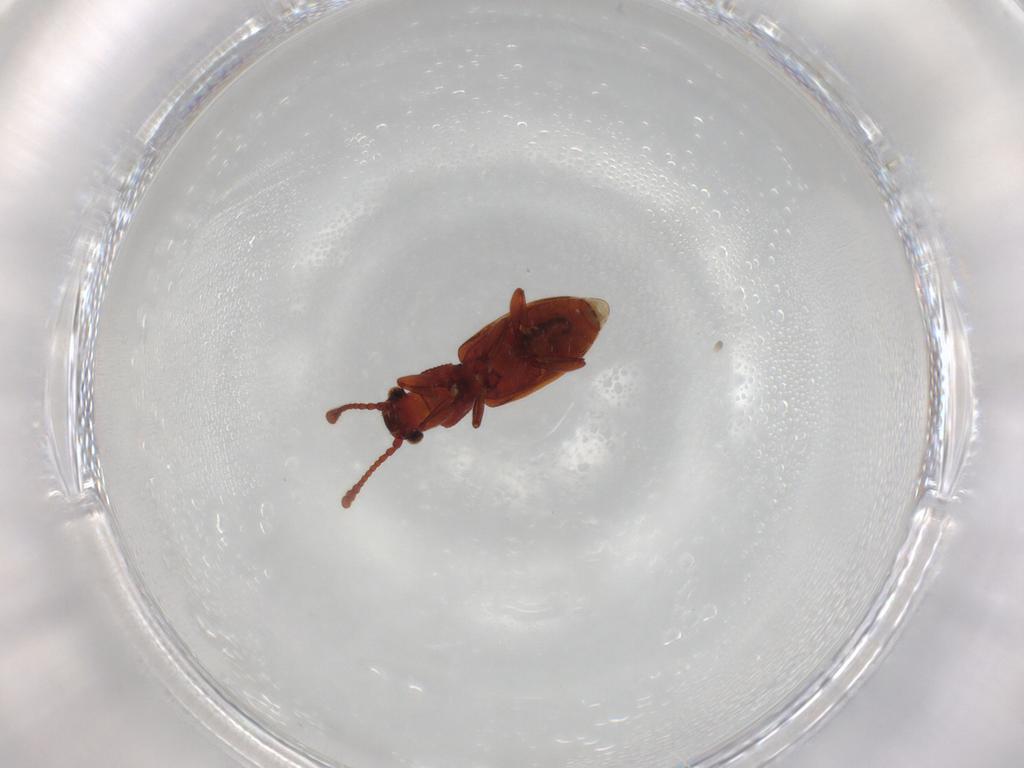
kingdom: Animalia
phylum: Arthropoda
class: Insecta
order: Coleoptera
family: Silvanidae
